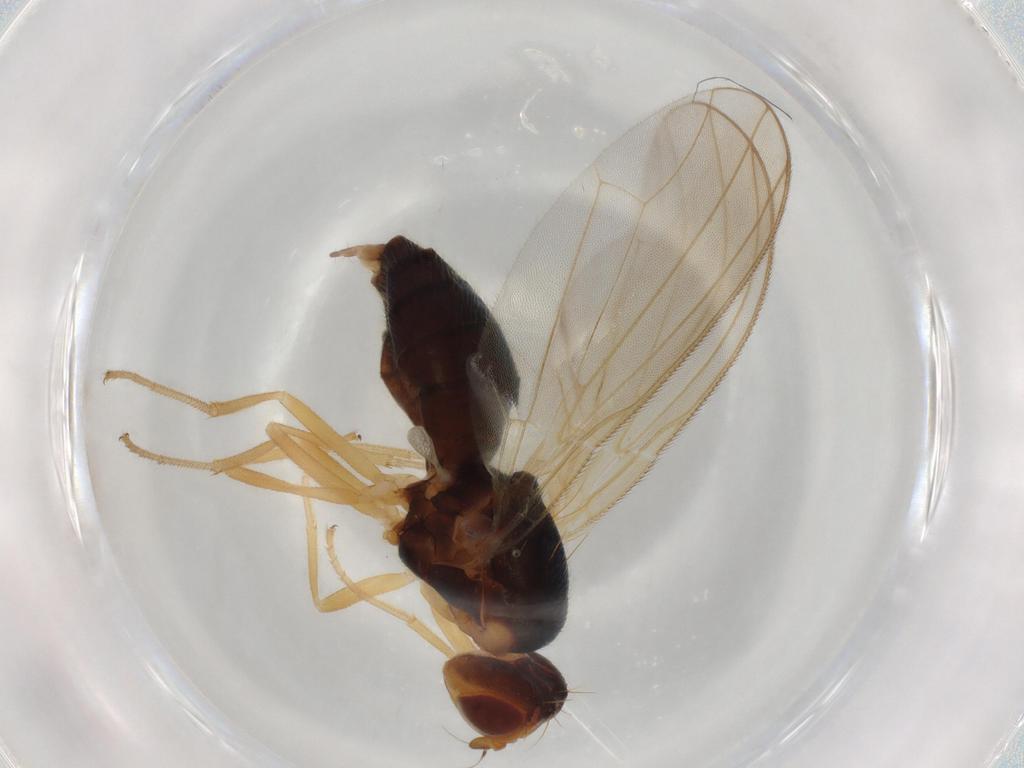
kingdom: Animalia
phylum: Arthropoda
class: Insecta
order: Diptera
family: Psilidae
